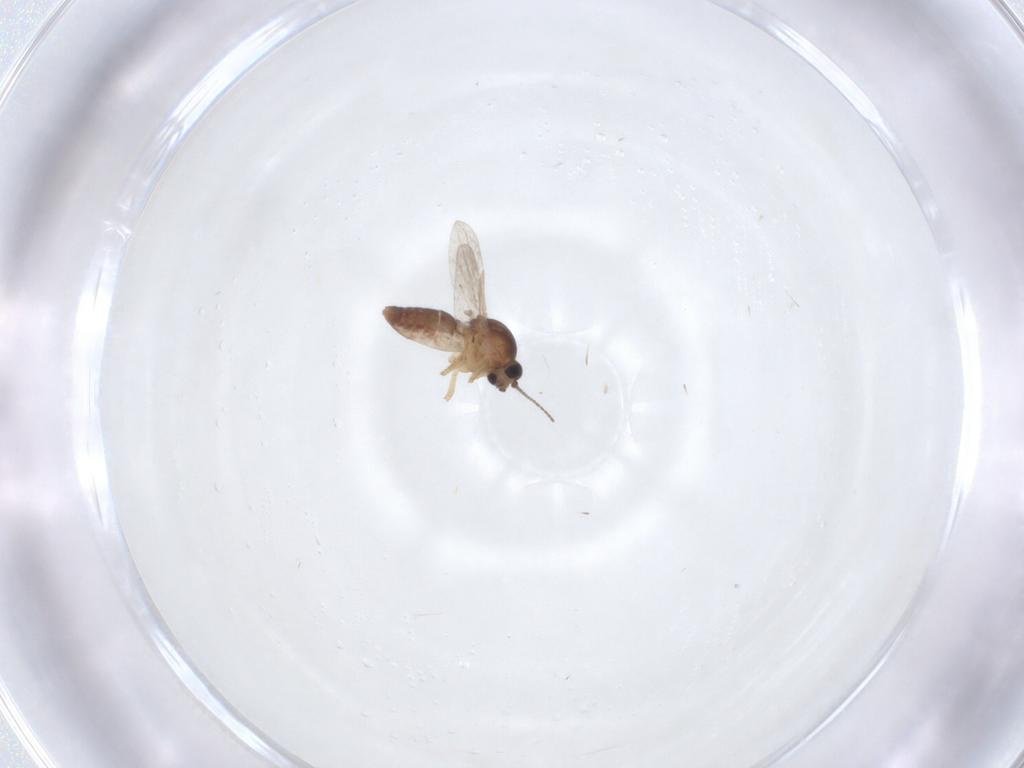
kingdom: Animalia
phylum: Arthropoda
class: Insecta
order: Diptera
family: Ceratopogonidae
